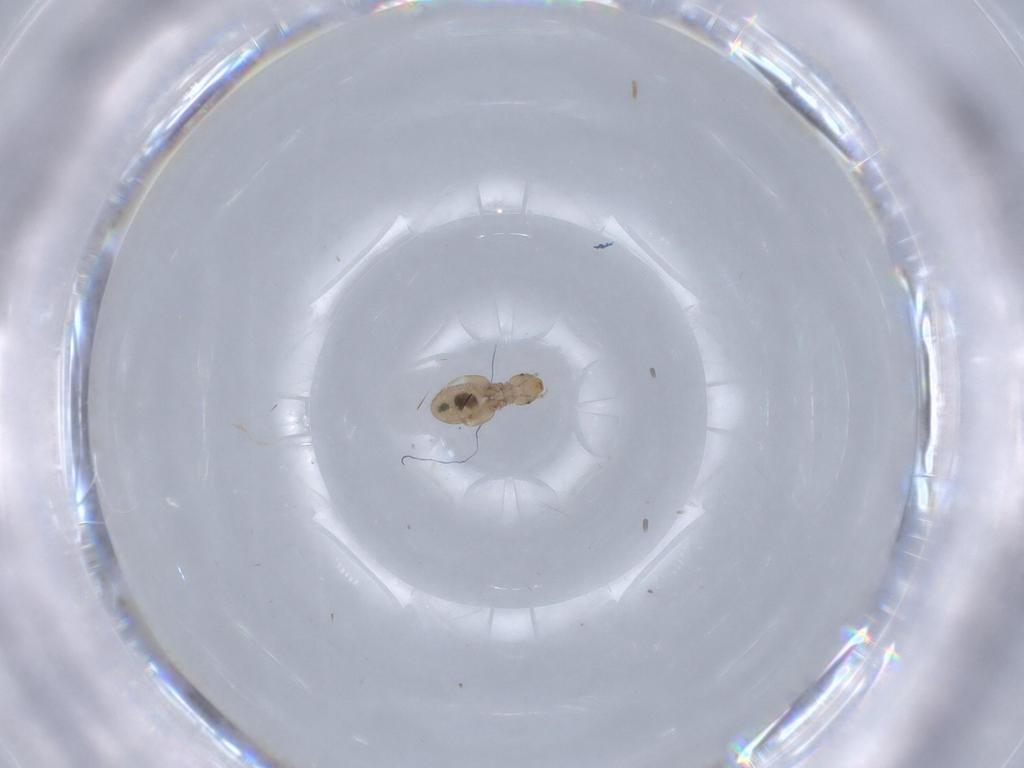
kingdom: Animalia
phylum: Arthropoda
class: Insecta
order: Psocodea
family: Liposcelididae
